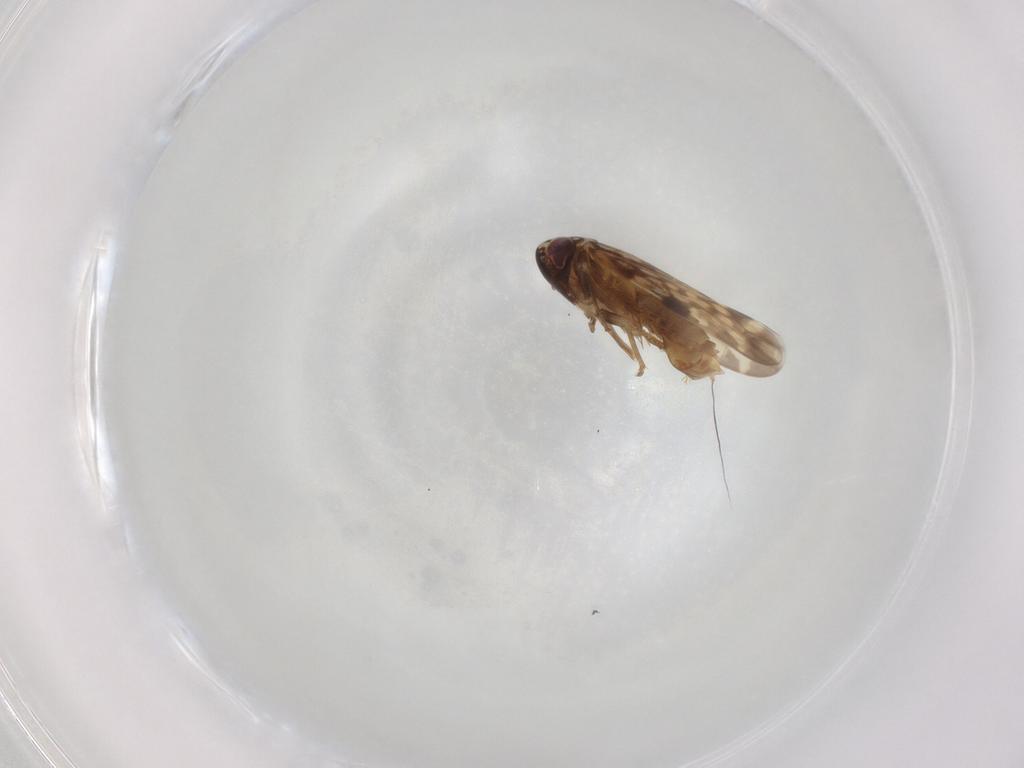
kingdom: Animalia
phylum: Arthropoda
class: Insecta
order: Hemiptera
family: Cicadellidae
